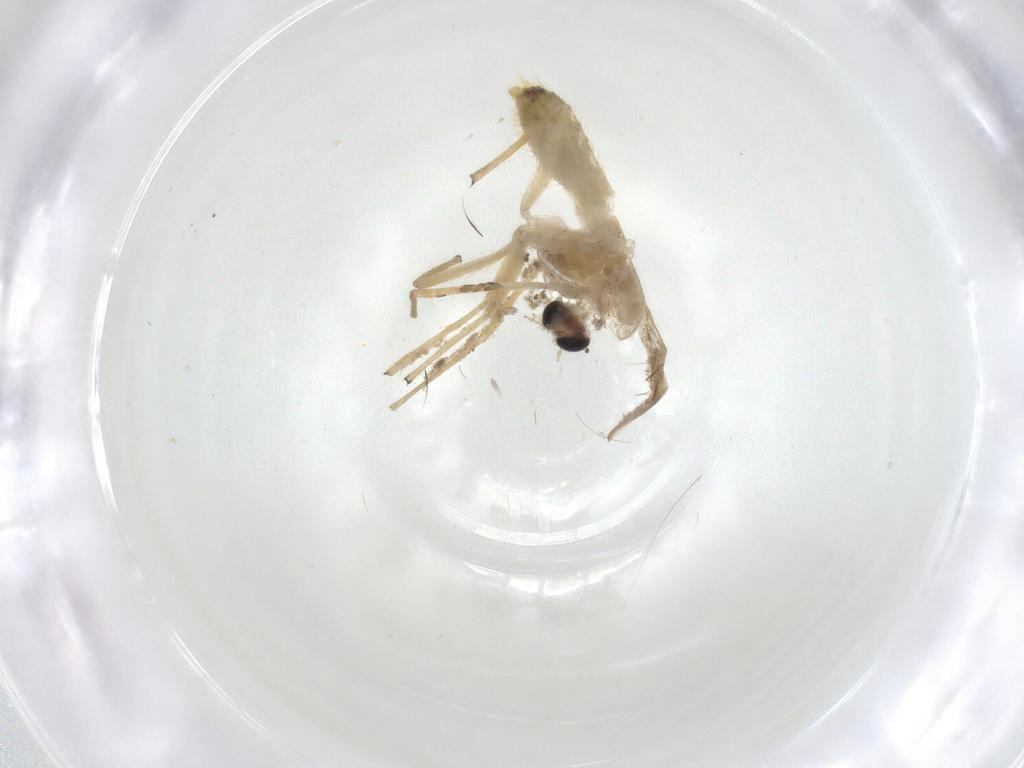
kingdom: Animalia
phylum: Arthropoda
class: Insecta
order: Diptera
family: Chironomidae
